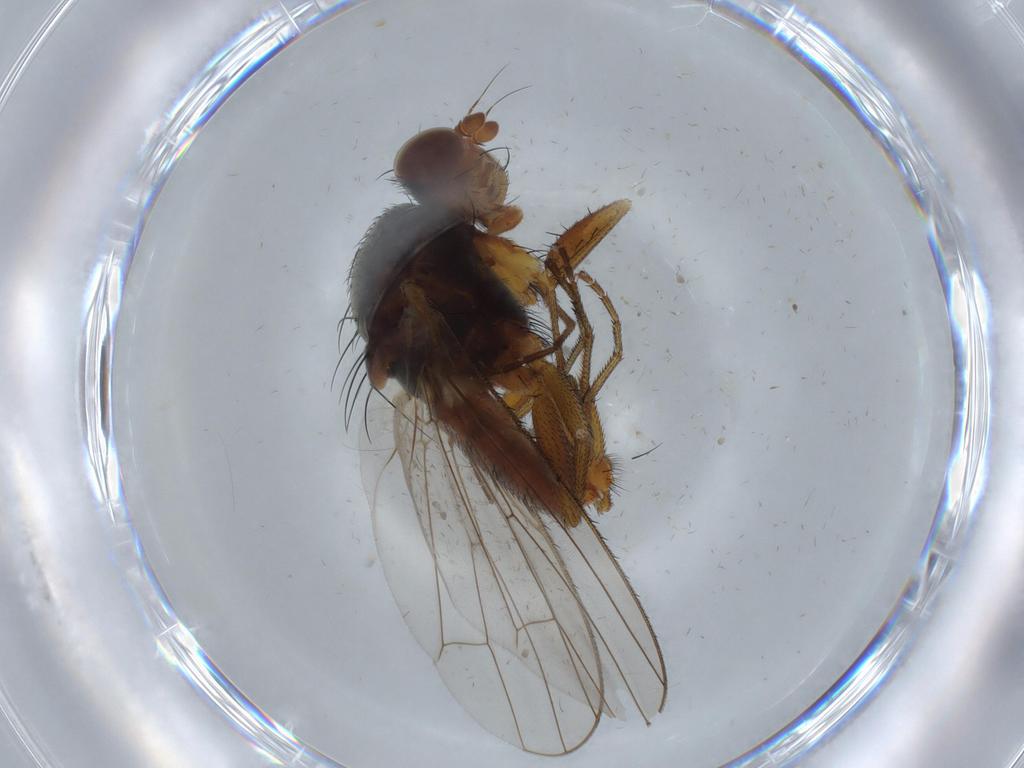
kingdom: Animalia
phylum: Arthropoda
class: Insecta
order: Diptera
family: Heleomyzidae
